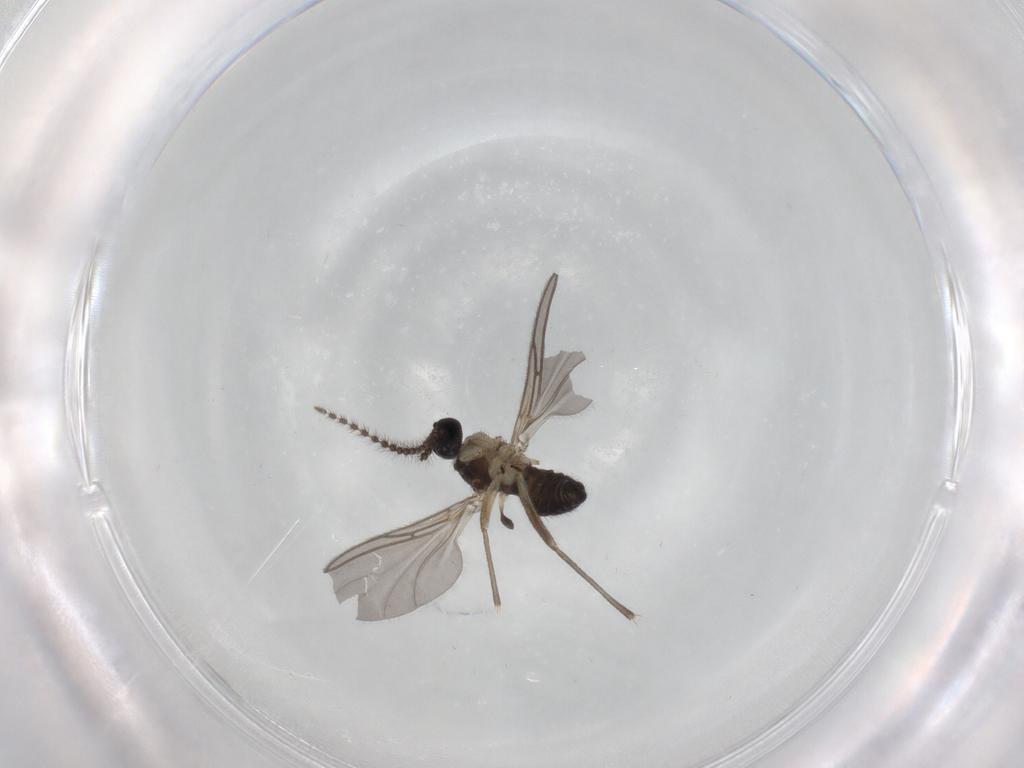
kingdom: Animalia
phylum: Arthropoda
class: Insecta
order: Diptera
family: Sciaridae
